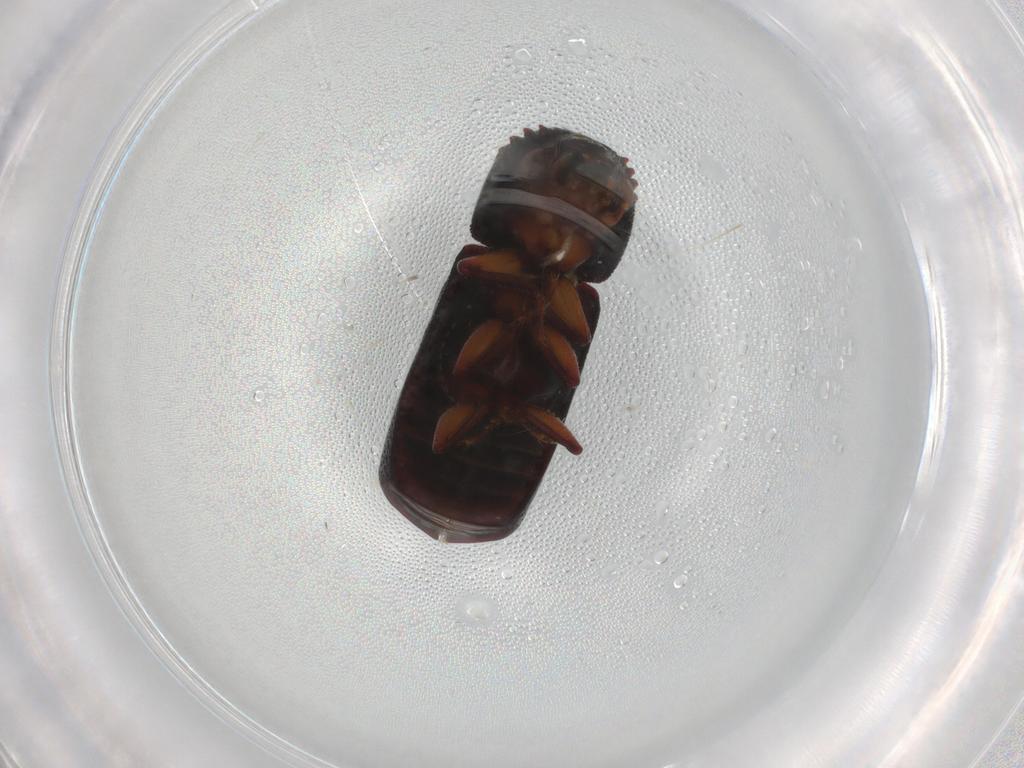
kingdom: Animalia
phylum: Arthropoda
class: Insecta
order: Coleoptera
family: Bostrichidae
